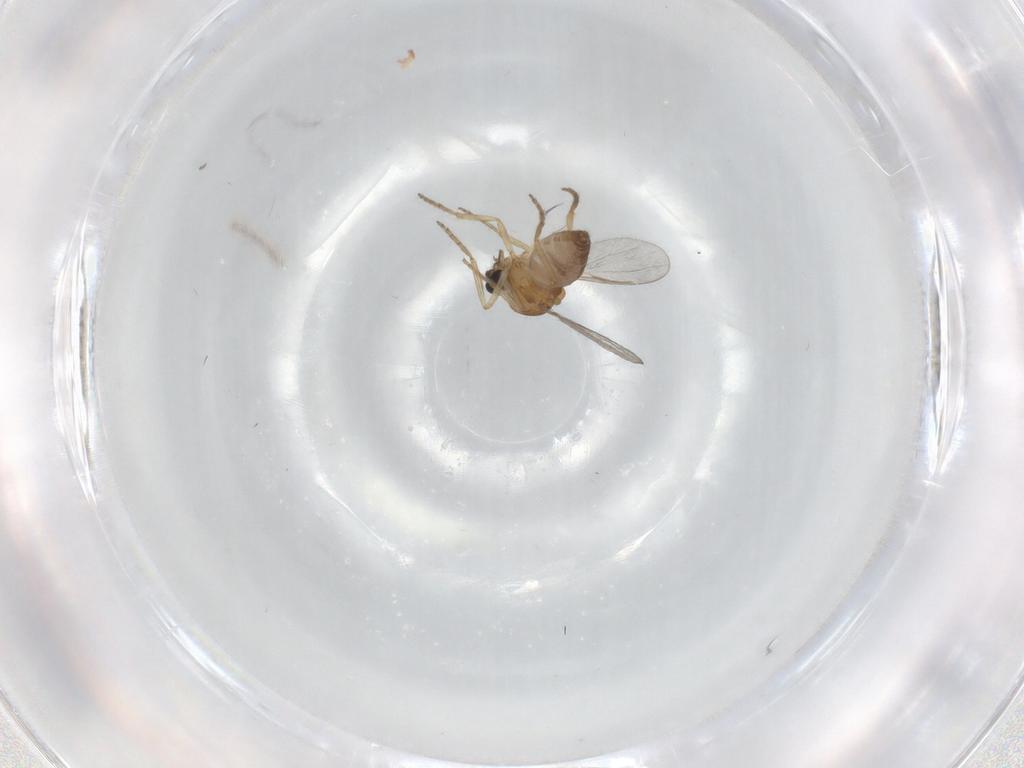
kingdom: Animalia
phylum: Arthropoda
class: Insecta
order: Diptera
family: Ceratopogonidae
